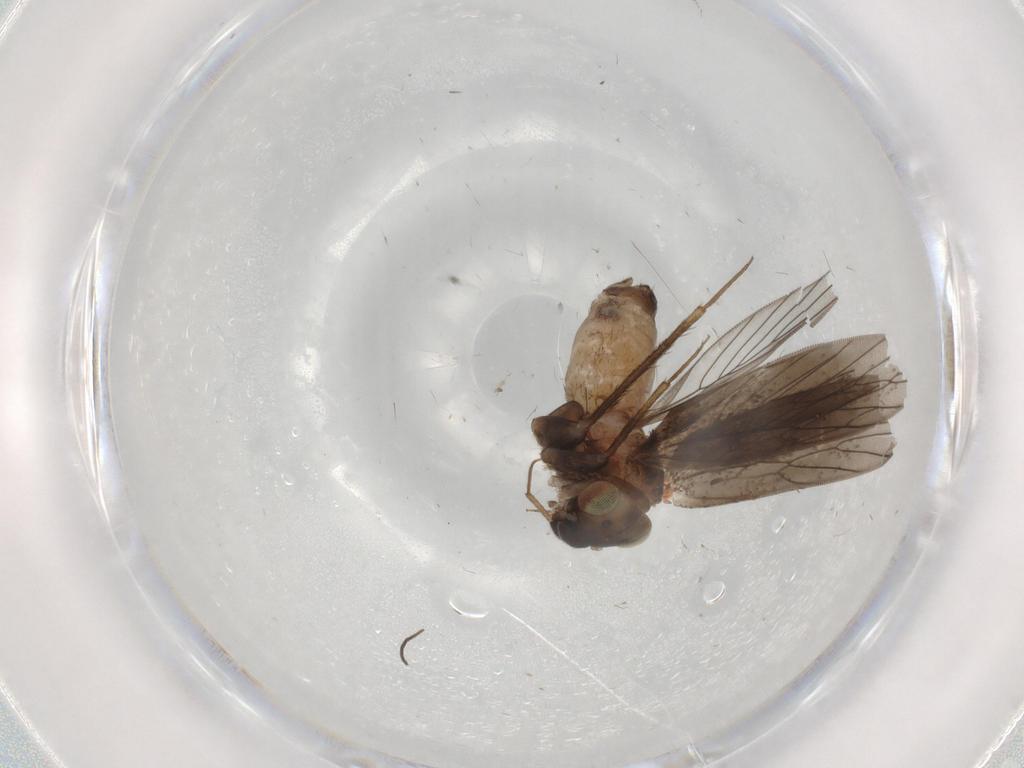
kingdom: Animalia
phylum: Arthropoda
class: Insecta
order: Psocodea
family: Lepidopsocidae
